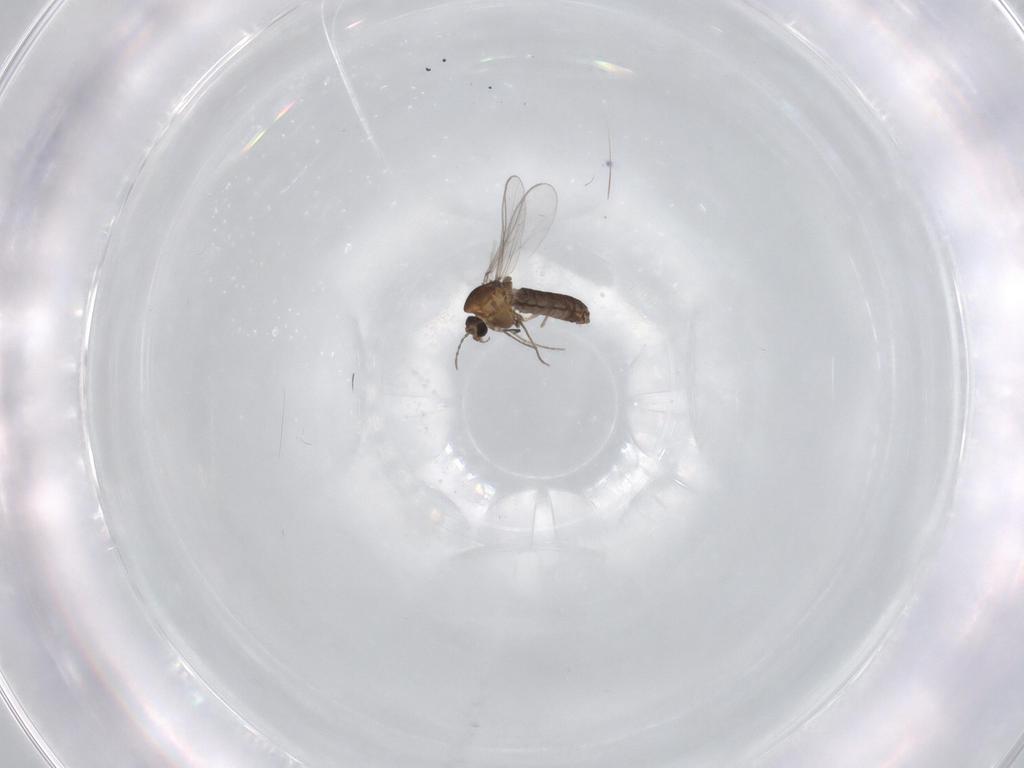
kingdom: Animalia
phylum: Arthropoda
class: Insecta
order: Diptera
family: Chironomidae
